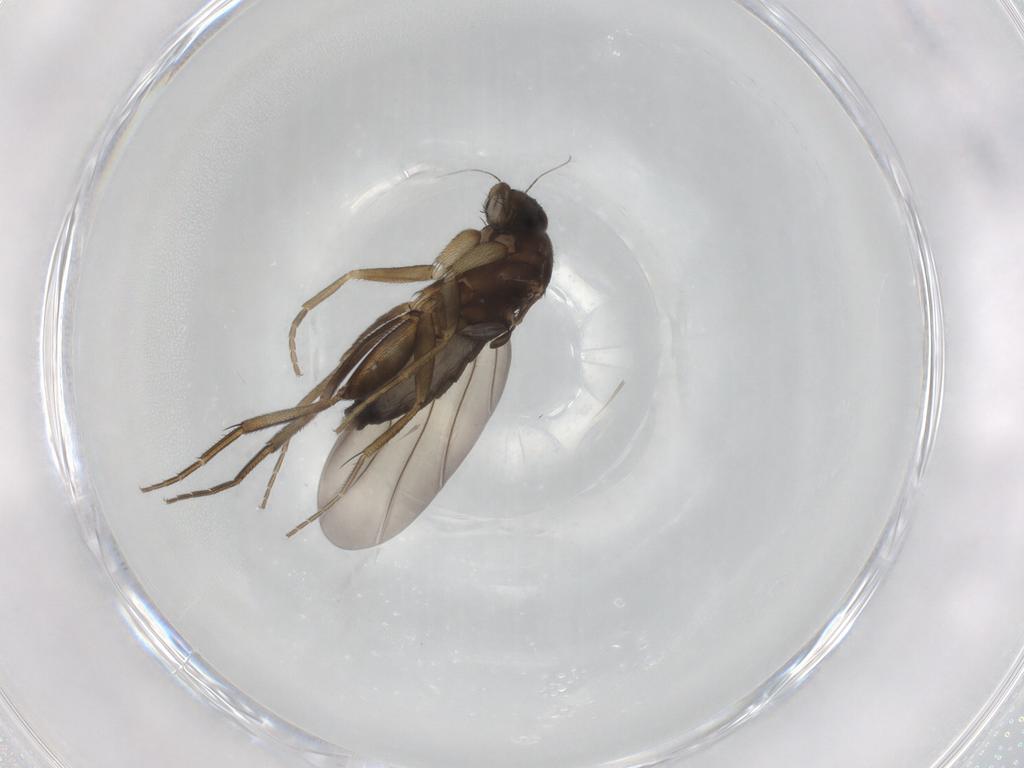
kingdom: Animalia
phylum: Arthropoda
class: Insecta
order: Diptera
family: Phoridae
